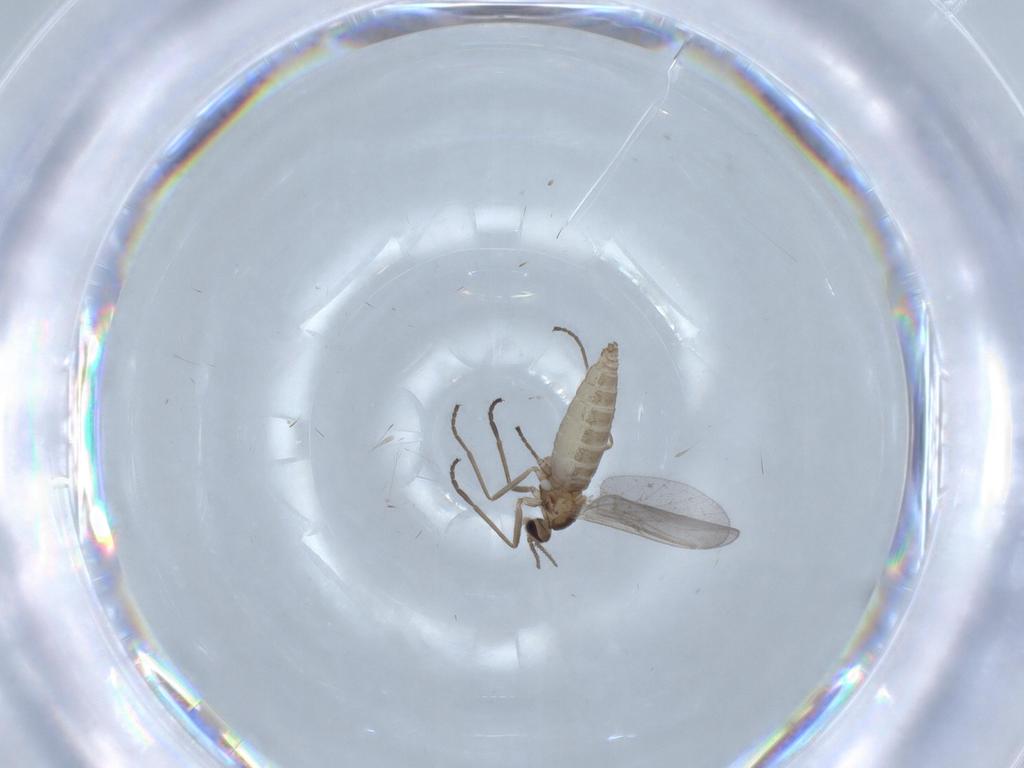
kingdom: Animalia
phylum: Arthropoda
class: Insecta
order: Diptera
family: Cecidomyiidae
